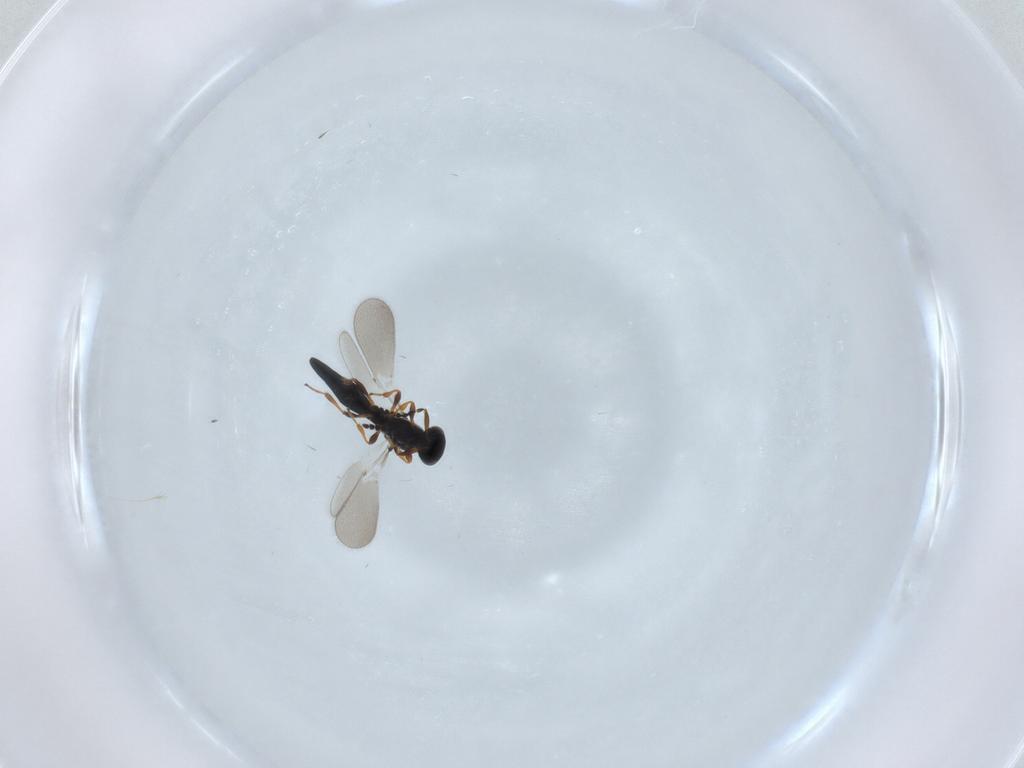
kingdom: Animalia
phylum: Arthropoda
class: Insecta
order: Hymenoptera
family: Platygastridae
